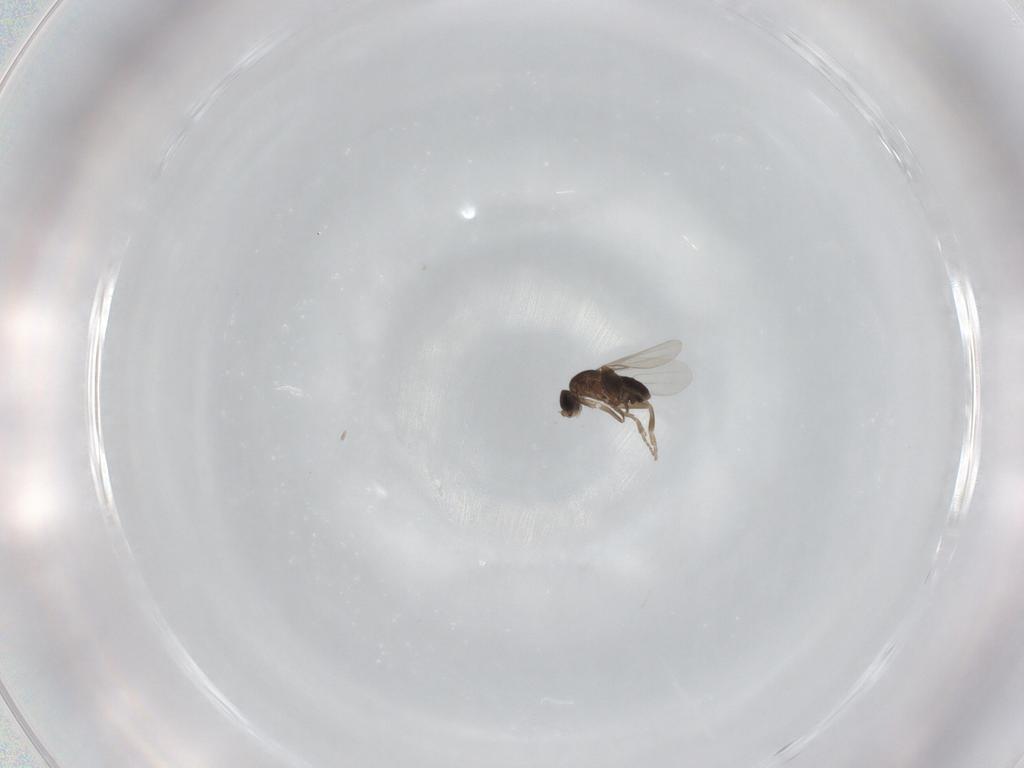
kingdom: Animalia
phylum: Arthropoda
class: Insecta
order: Diptera
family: Phoridae
